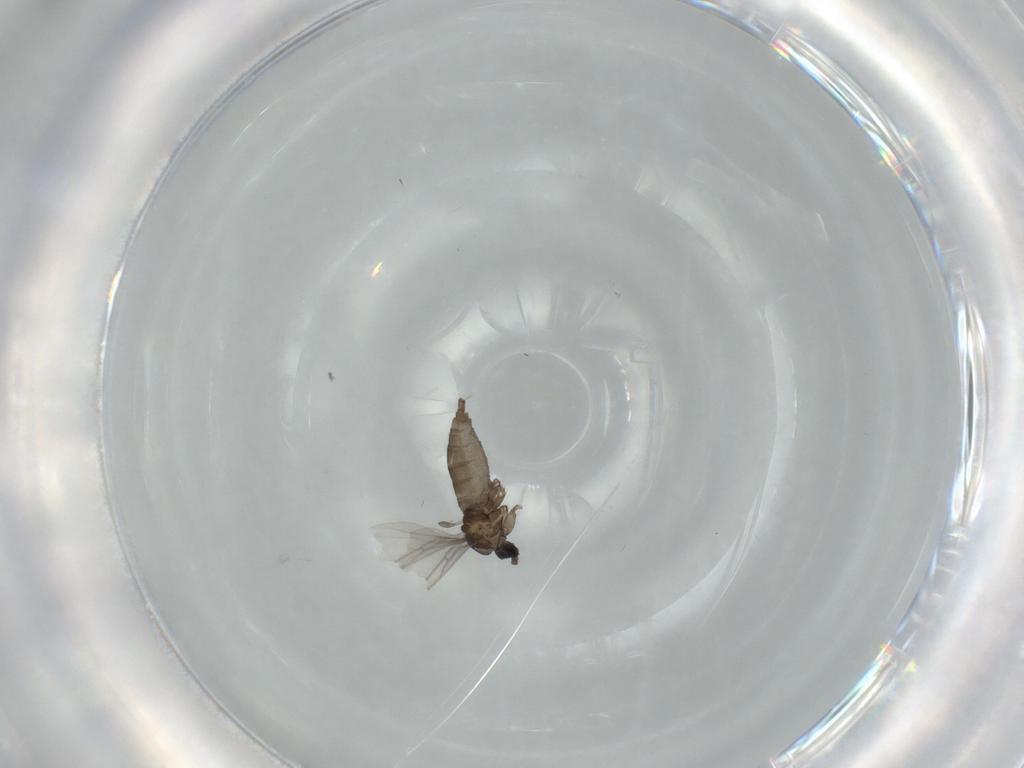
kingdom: Animalia
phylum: Arthropoda
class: Insecta
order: Diptera
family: Sciaridae
